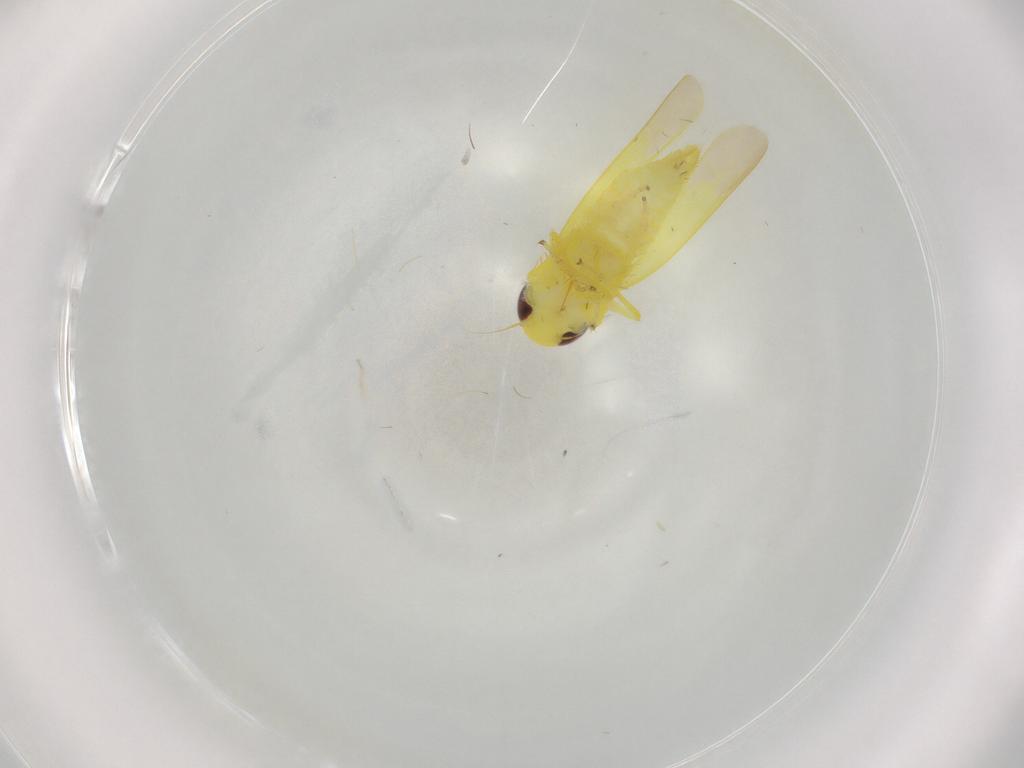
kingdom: Animalia
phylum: Arthropoda
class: Insecta
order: Hemiptera
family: Cicadellidae
